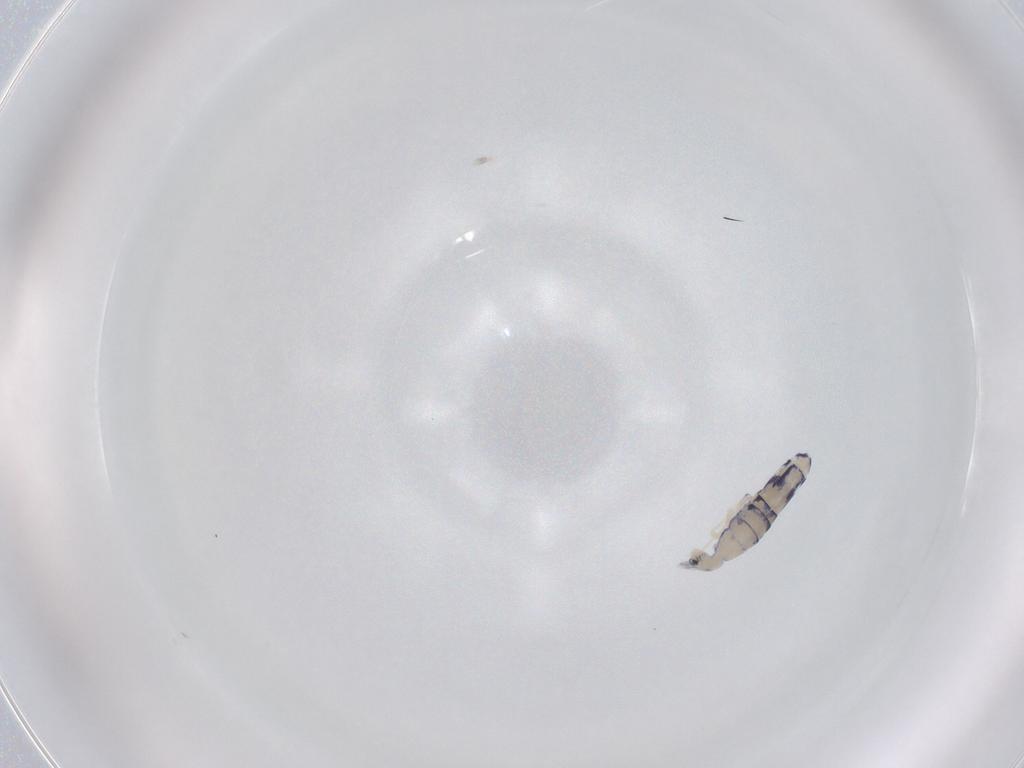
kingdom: Animalia
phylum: Arthropoda
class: Collembola
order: Entomobryomorpha
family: Entomobryidae
